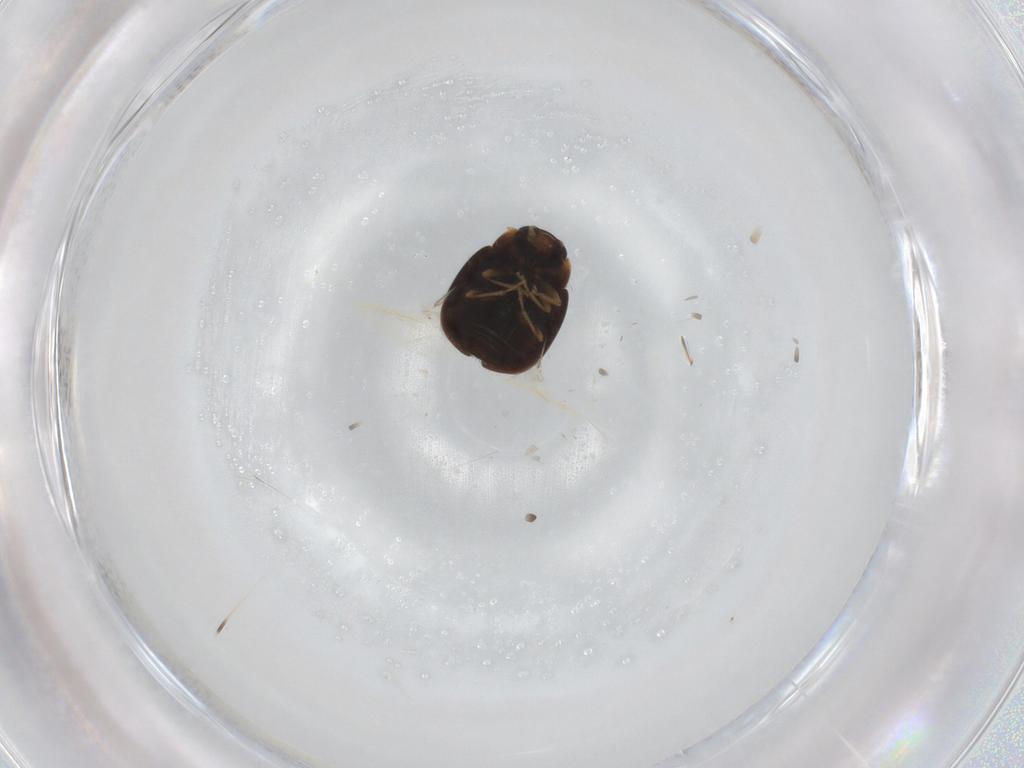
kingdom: Animalia
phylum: Arthropoda
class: Insecta
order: Coleoptera
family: Coccinellidae
